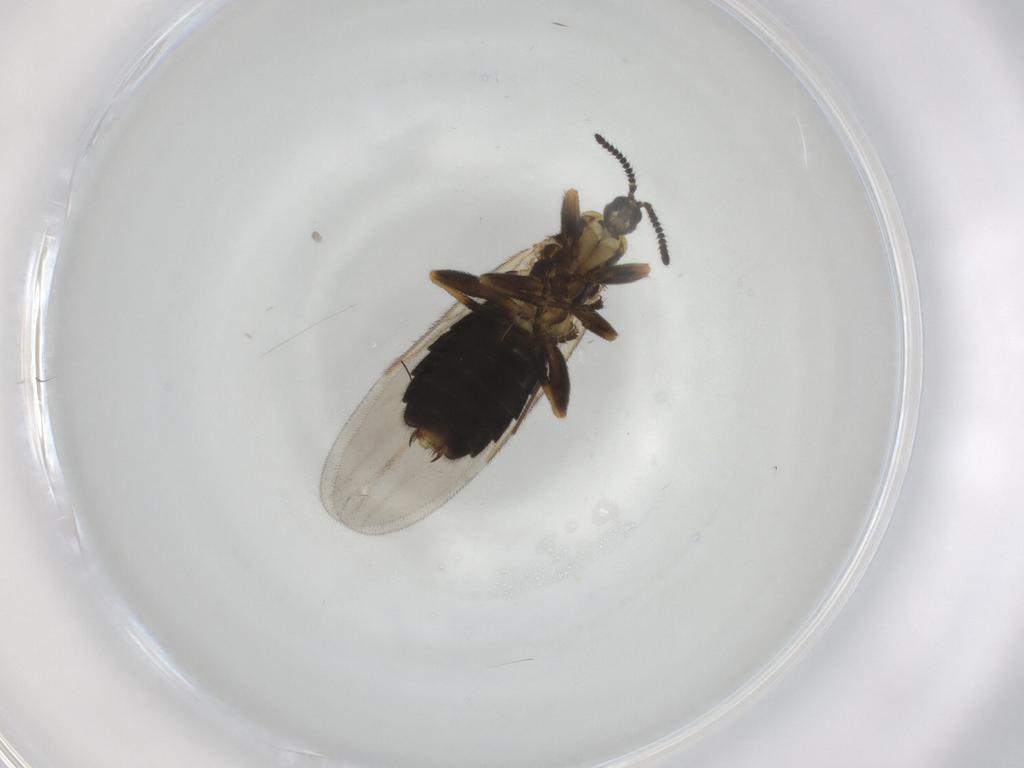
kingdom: Animalia
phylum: Arthropoda
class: Insecta
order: Diptera
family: Scatopsidae
